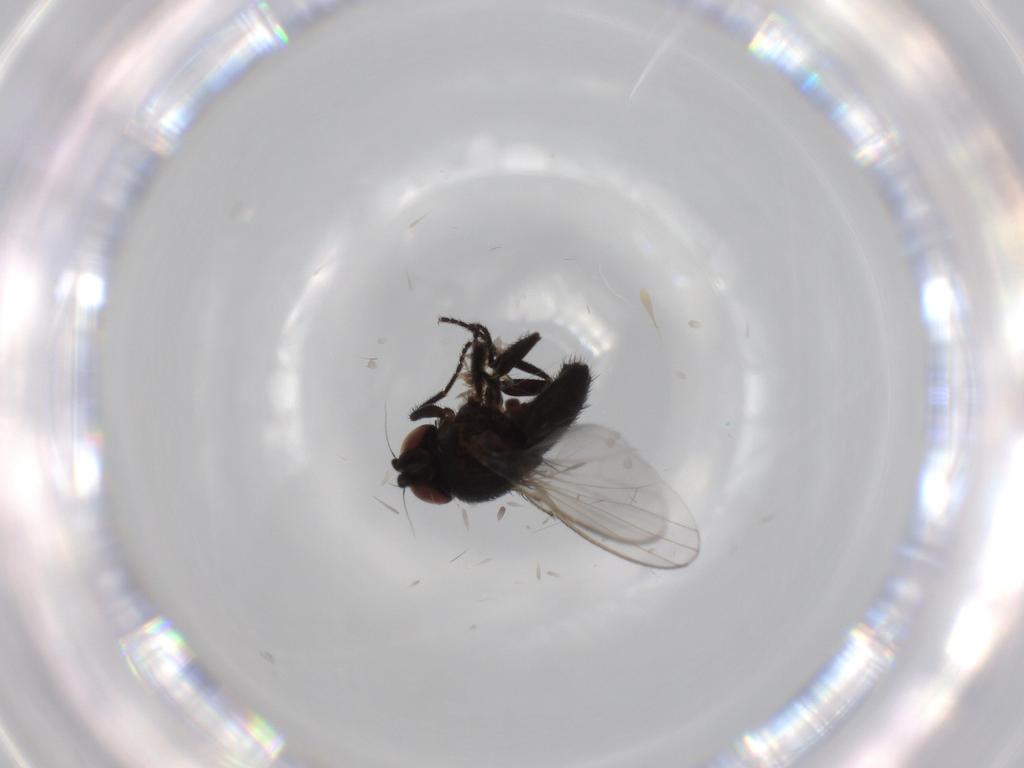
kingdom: Animalia
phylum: Arthropoda
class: Insecta
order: Diptera
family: Milichiidae
